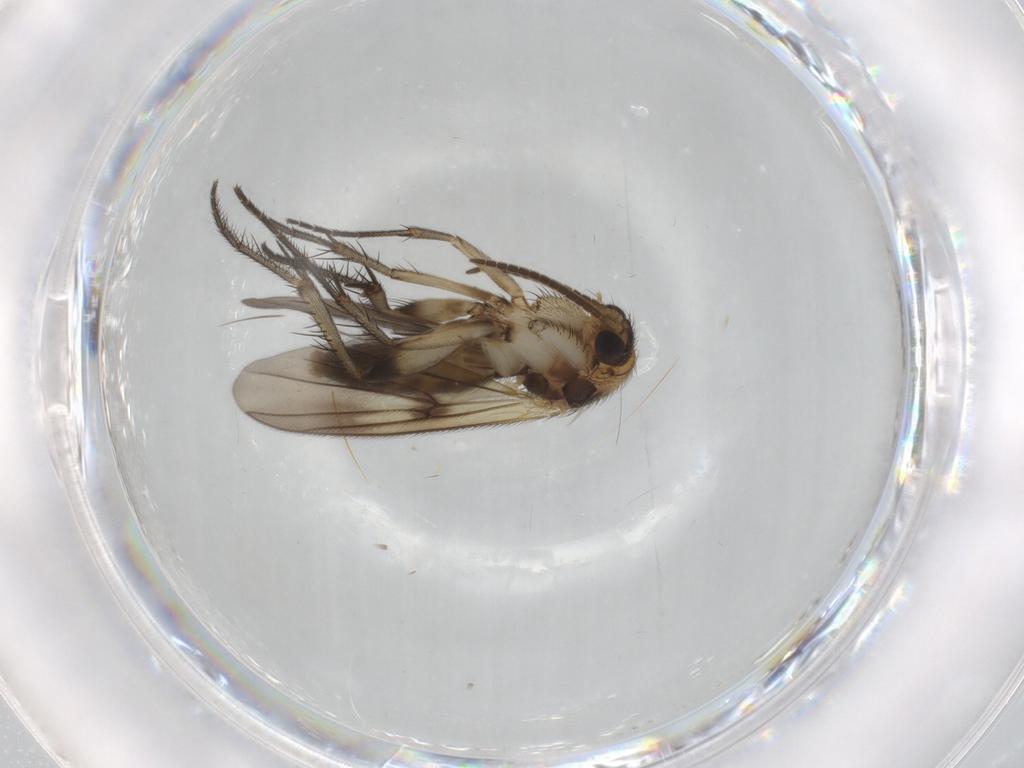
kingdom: Animalia
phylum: Arthropoda
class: Insecta
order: Diptera
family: Mycetophilidae
